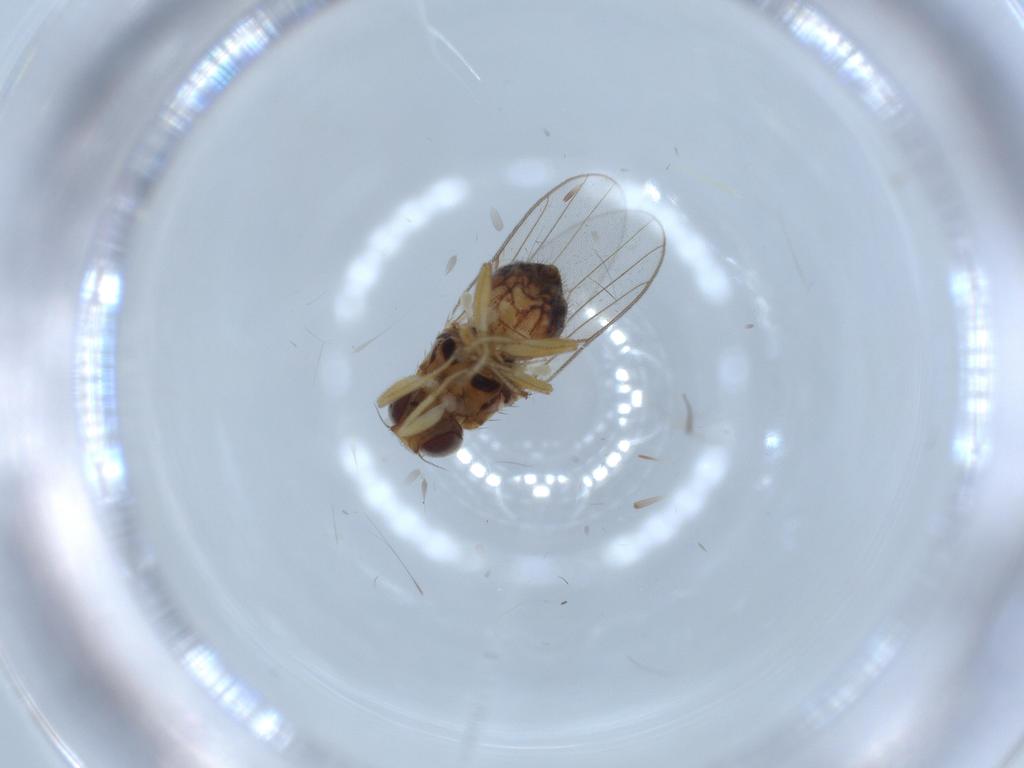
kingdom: Animalia
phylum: Arthropoda
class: Insecta
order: Diptera
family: Chloropidae
